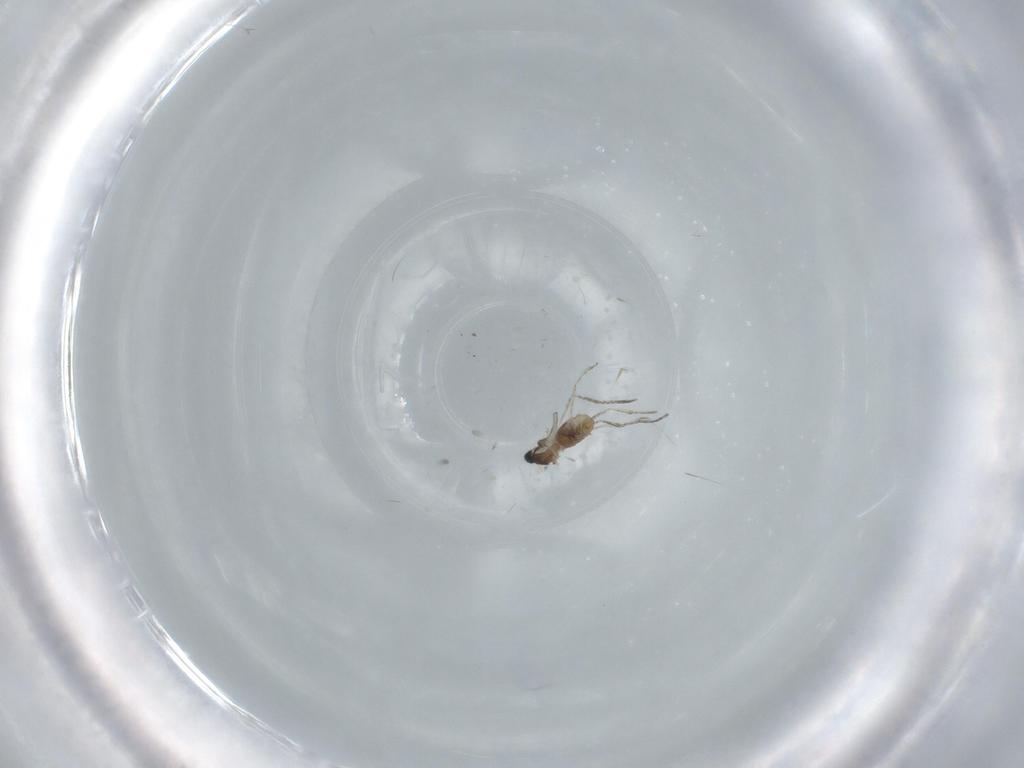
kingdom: Animalia
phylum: Arthropoda
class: Insecta
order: Diptera
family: Cecidomyiidae
